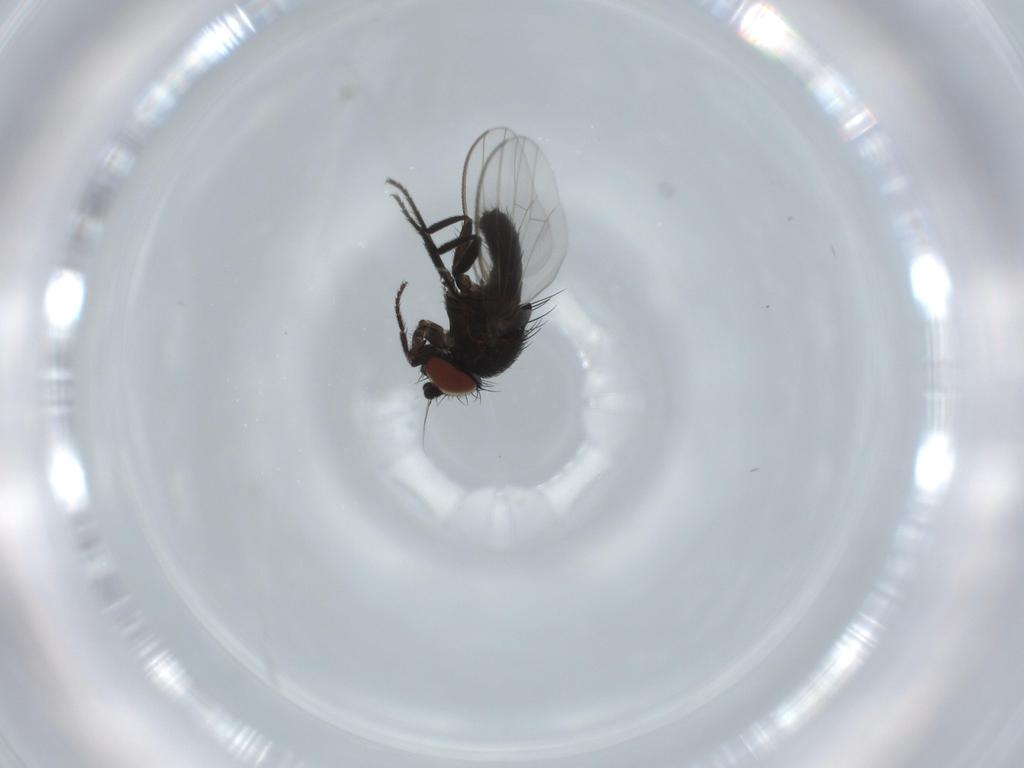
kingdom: Animalia
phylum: Arthropoda
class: Insecta
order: Diptera
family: Milichiidae
